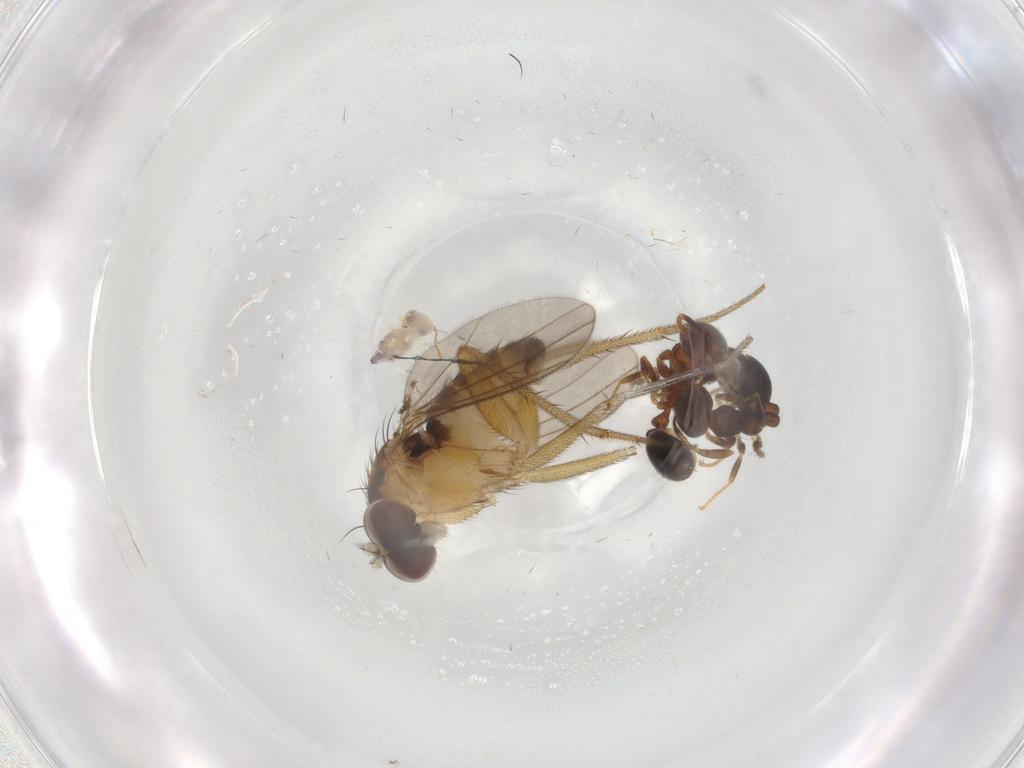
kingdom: Animalia
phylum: Arthropoda
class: Insecta
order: Diptera
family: Cecidomyiidae
